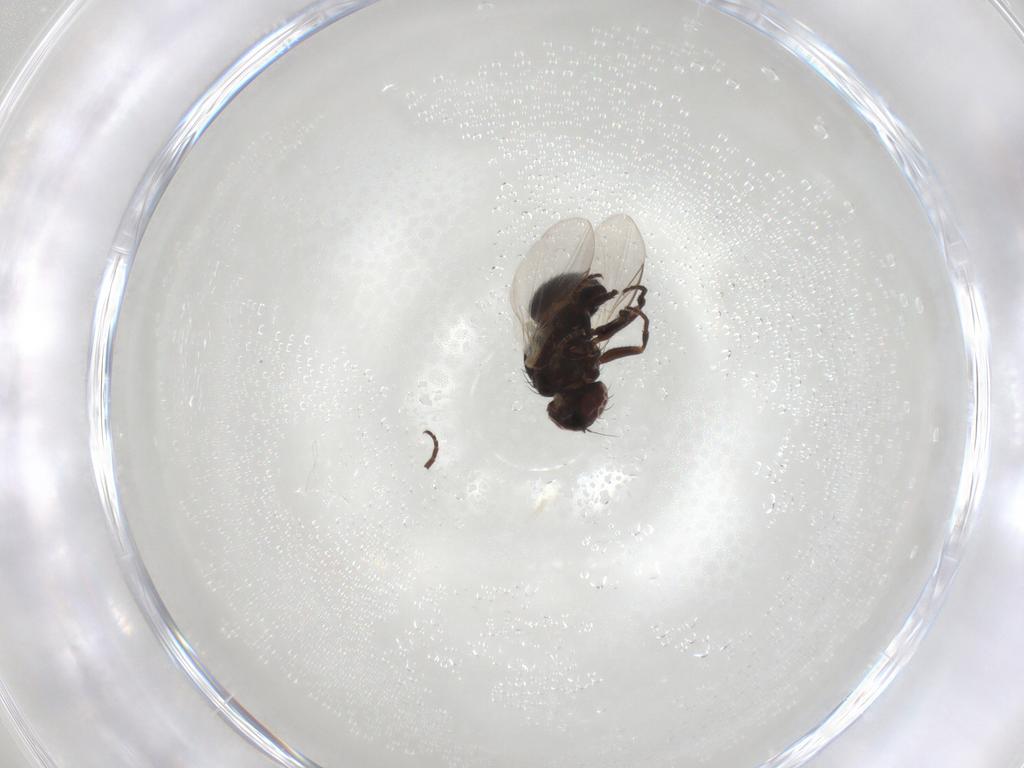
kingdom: Animalia
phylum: Arthropoda
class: Insecta
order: Diptera
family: Agromyzidae
